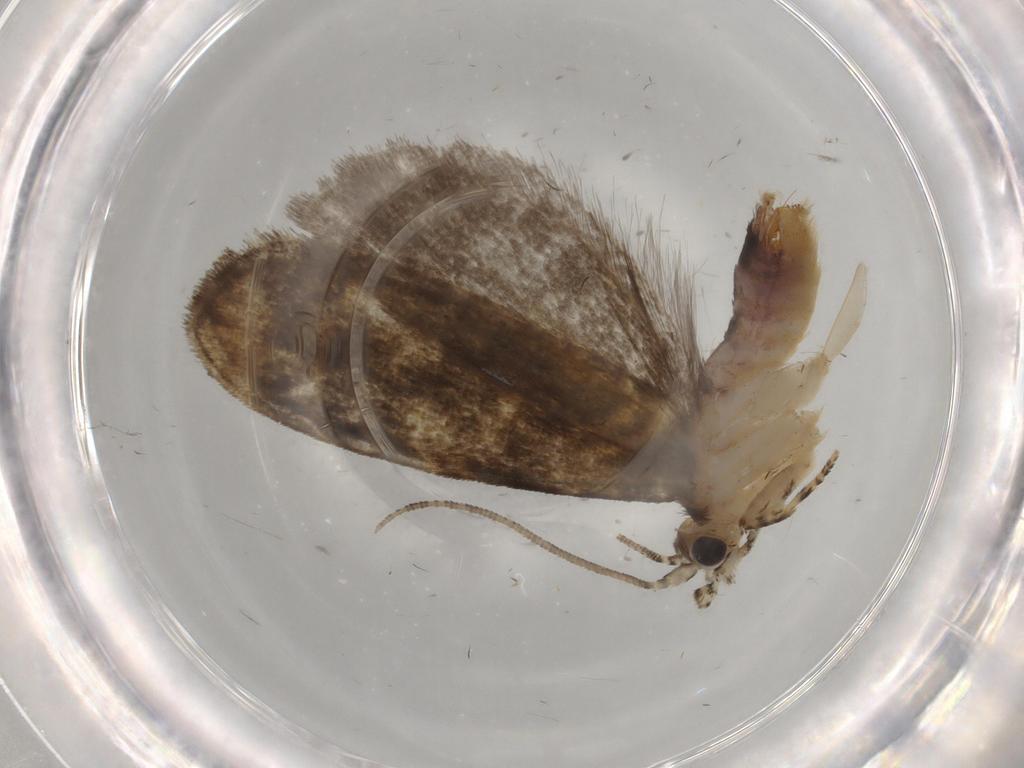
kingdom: Animalia
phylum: Arthropoda
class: Insecta
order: Lepidoptera
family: Tineidae
